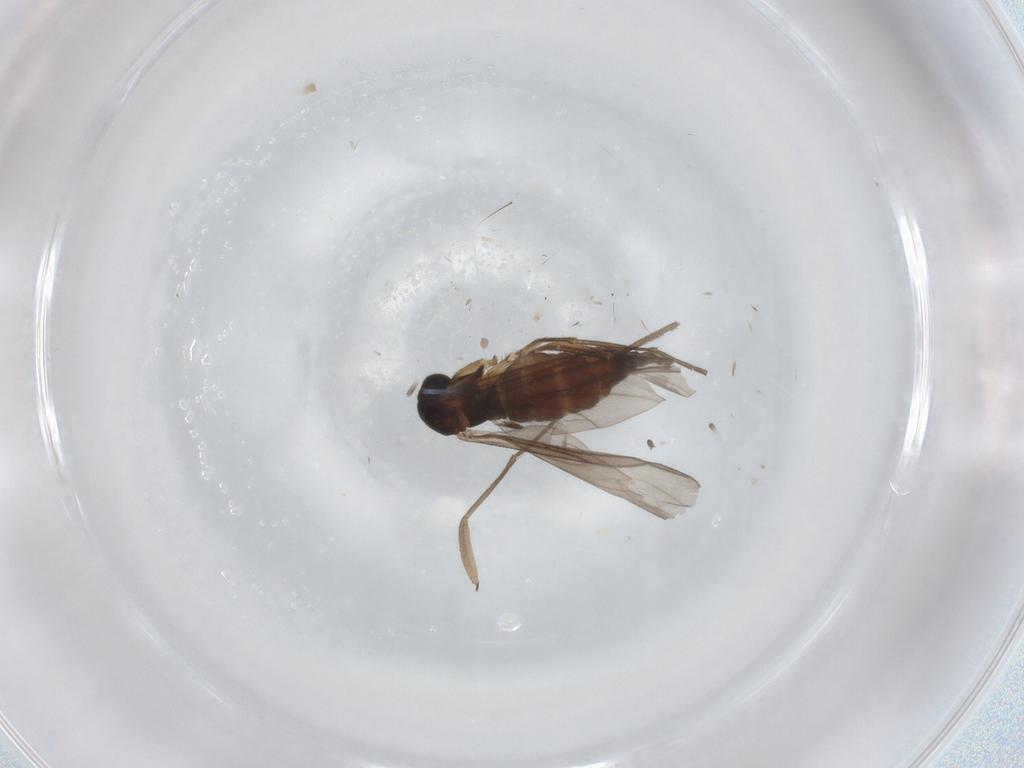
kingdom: Animalia
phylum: Arthropoda
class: Insecta
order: Diptera
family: Sciaridae
